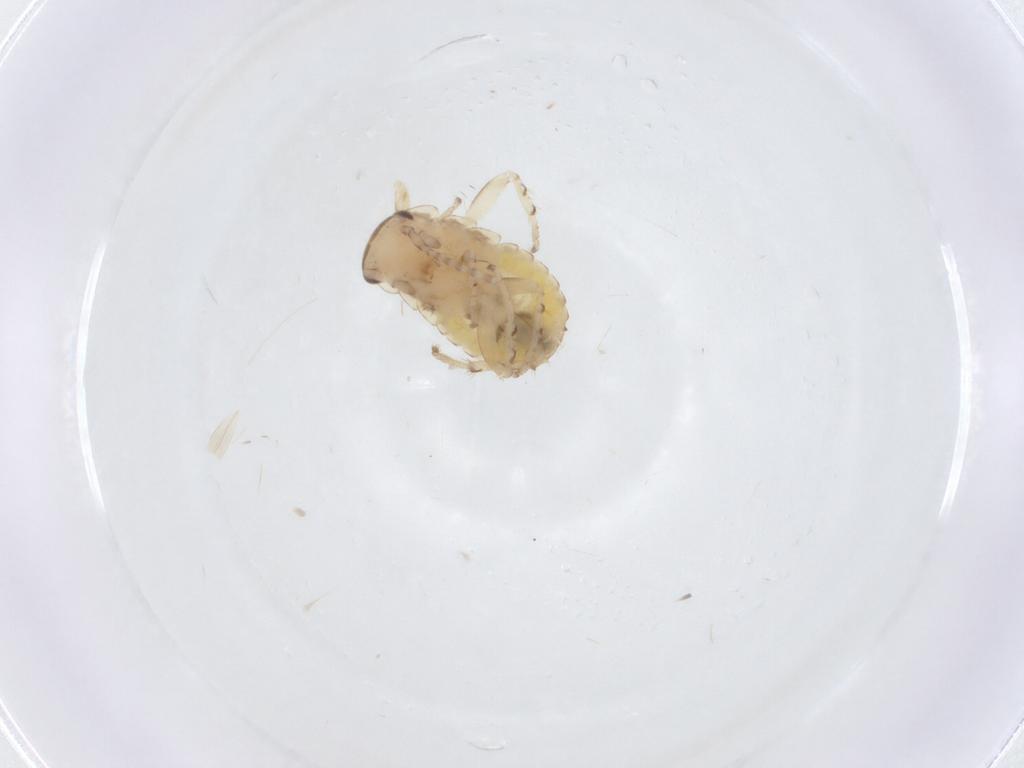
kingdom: Animalia
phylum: Arthropoda
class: Insecta
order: Blattodea
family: Ectobiidae
